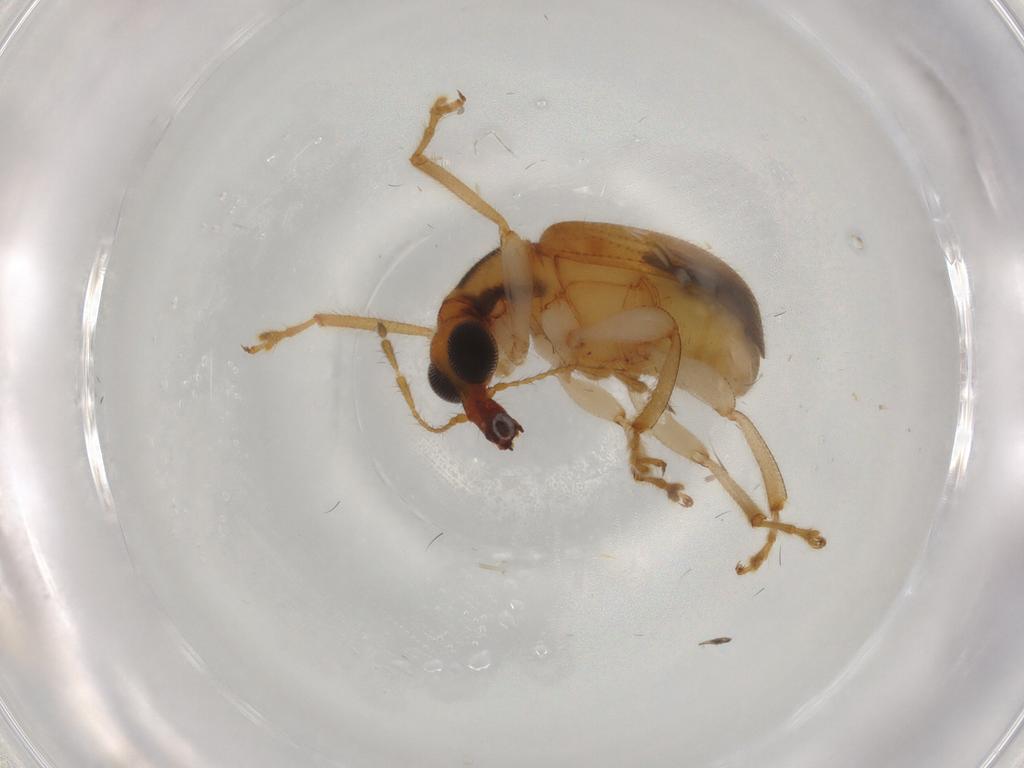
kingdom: Animalia
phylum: Arthropoda
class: Insecta
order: Coleoptera
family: Attelabidae
